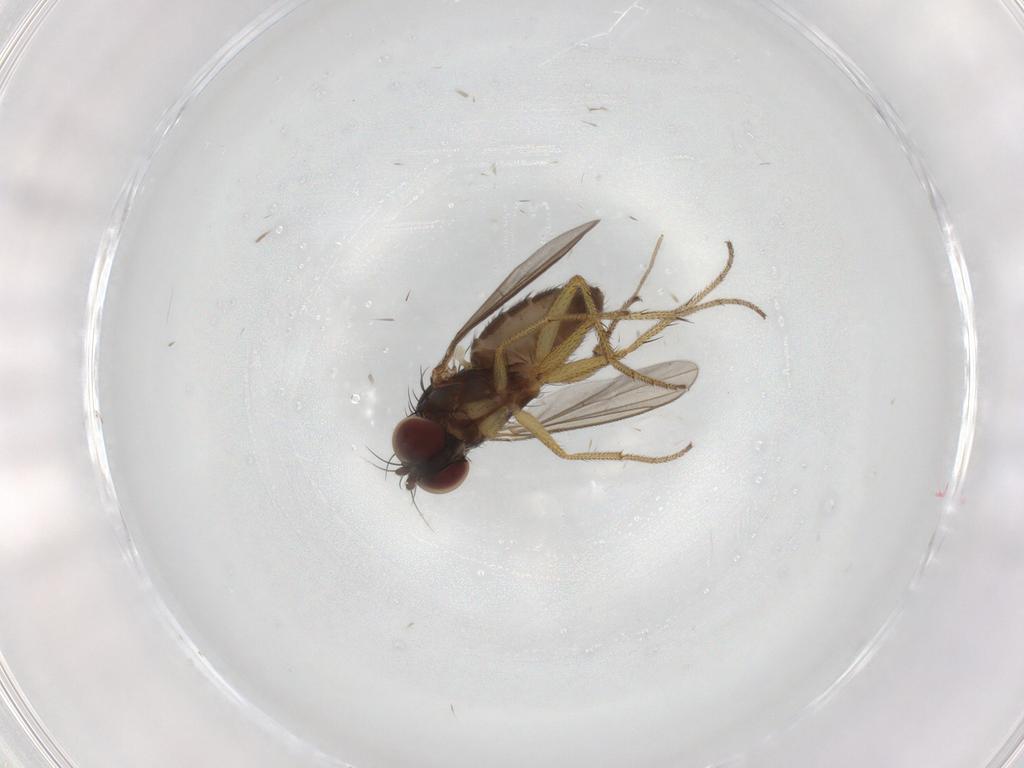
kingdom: Animalia
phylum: Arthropoda
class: Insecta
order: Diptera
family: Dolichopodidae
